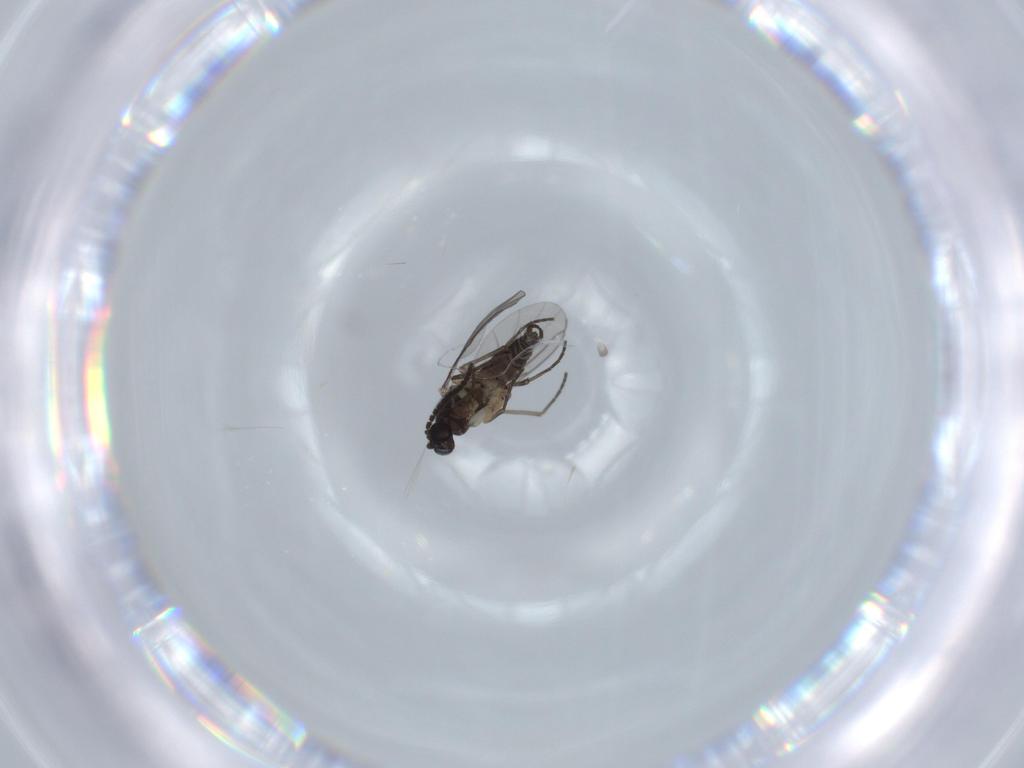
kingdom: Animalia
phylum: Arthropoda
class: Insecta
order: Diptera
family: Sciaridae
